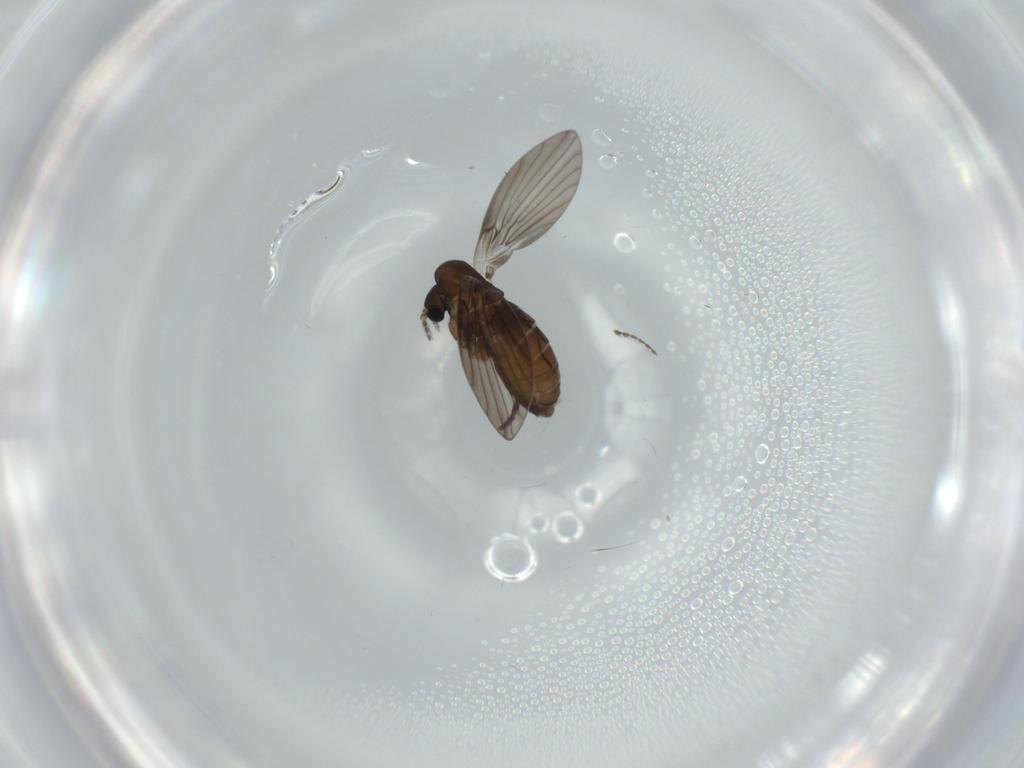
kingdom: Animalia
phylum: Arthropoda
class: Insecta
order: Diptera
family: Psychodidae
